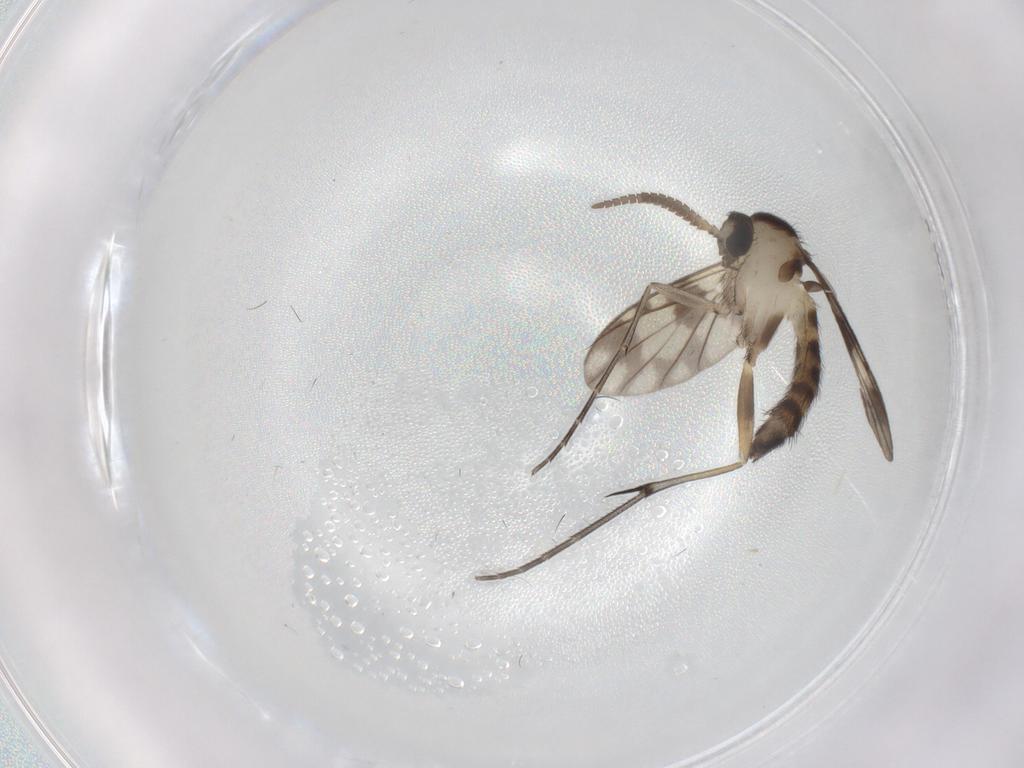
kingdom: Animalia
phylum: Arthropoda
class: Insecta
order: Diptera
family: Keroplatidae
